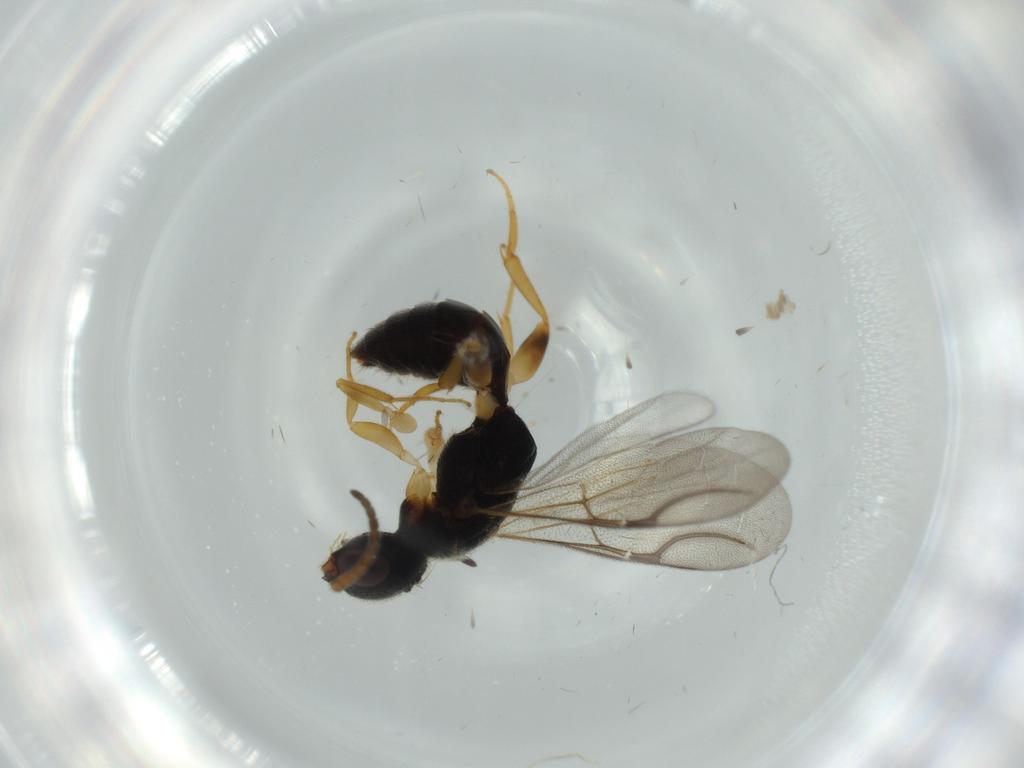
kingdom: Animalia
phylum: Arthropoda
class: Insecta
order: Hymenoptera
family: Bethylidae
